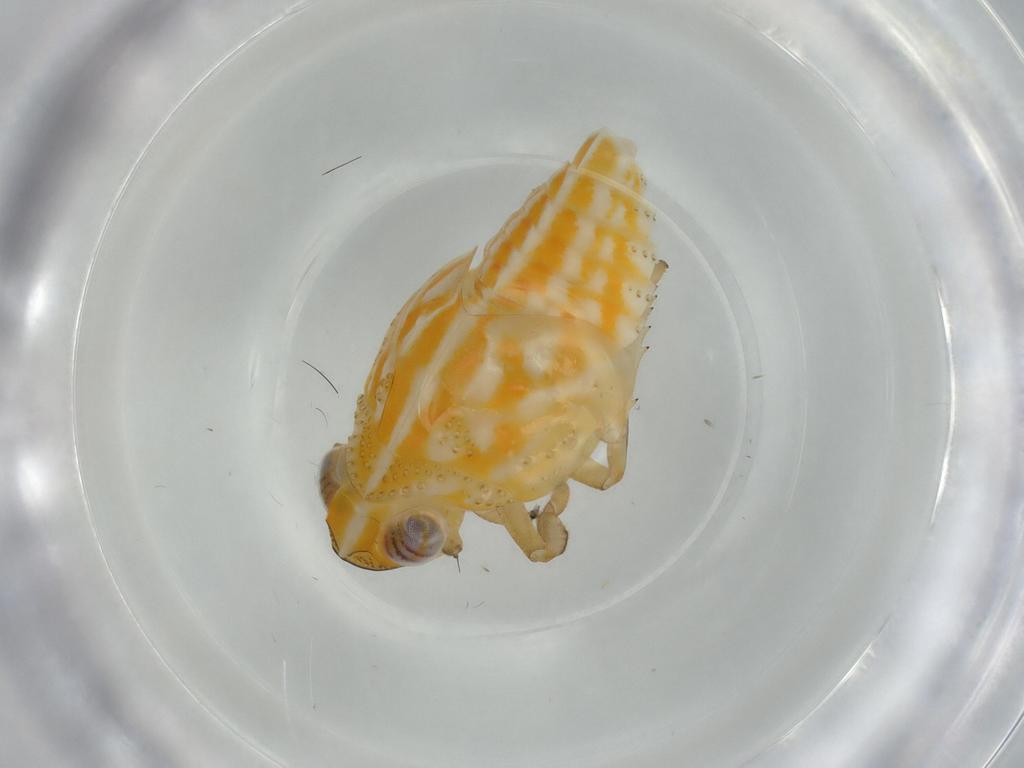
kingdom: Animalia
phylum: Arthropoda
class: Insecta
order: Hemiptera
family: Issidae
